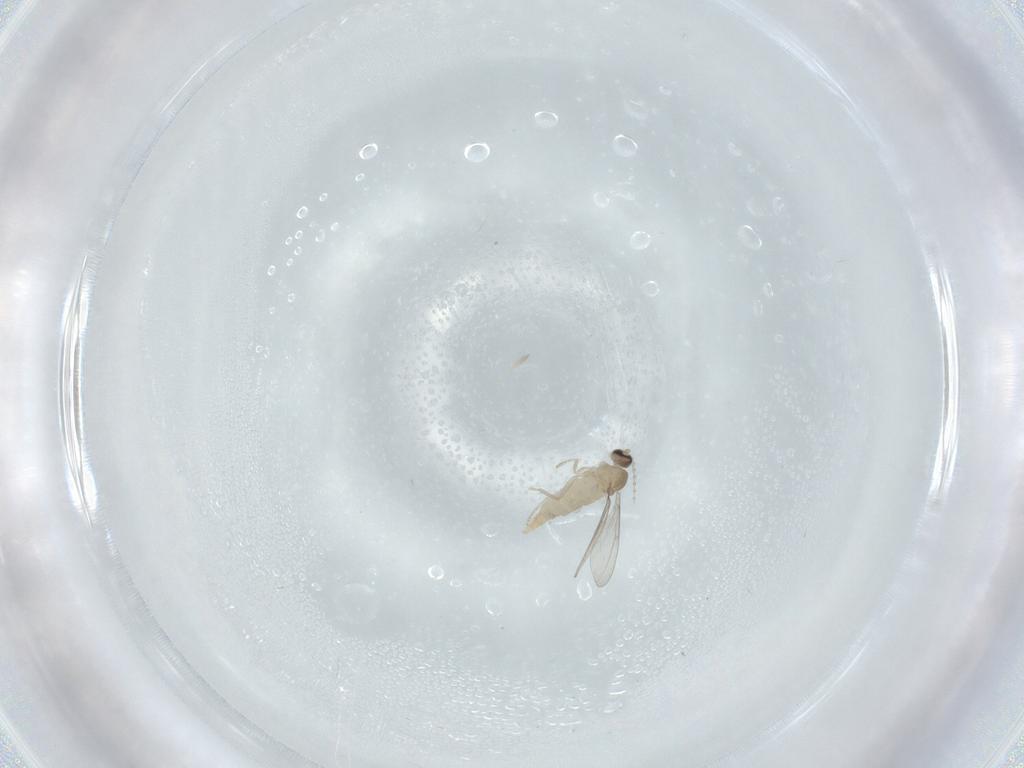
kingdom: Animalia
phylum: Arthropoda
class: Insecta
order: Diptera
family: Cecidomyiidae
